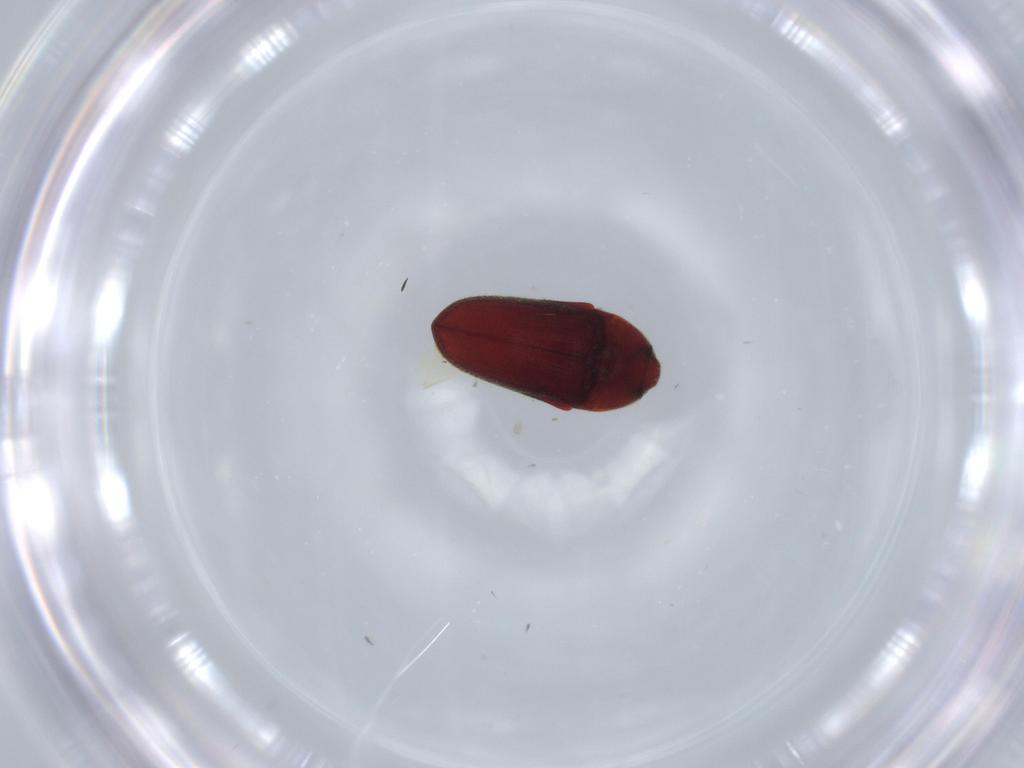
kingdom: Animalia
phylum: Arthropoda
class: Insecta
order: Coleoptera
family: Throscidae
